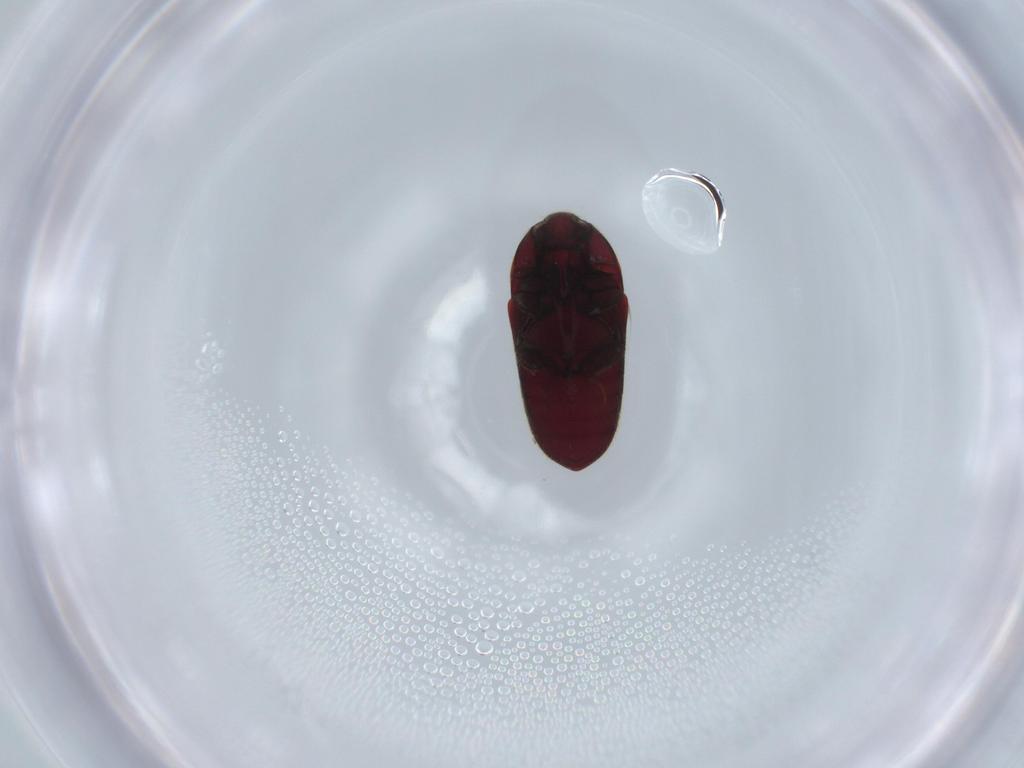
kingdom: Animalia
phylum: Arthropoda
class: Insecta
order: Coleoptera
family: Throscidae
